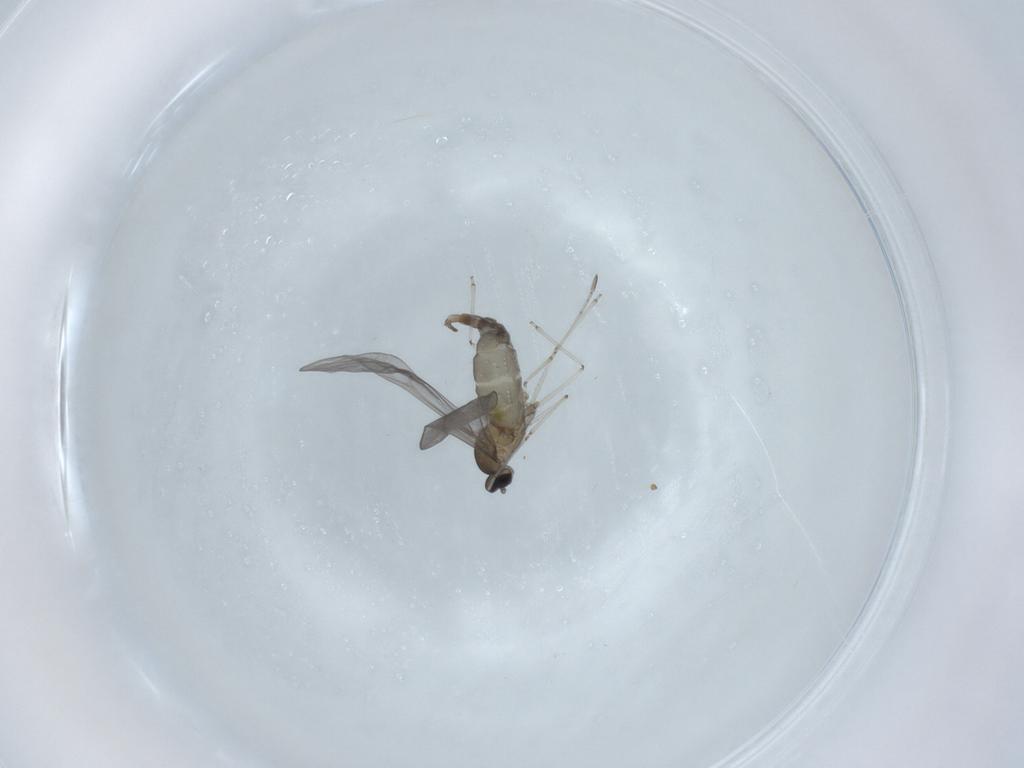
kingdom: Animalia
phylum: Arthropoda
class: Insecta
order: Diptera
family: Cecidomyiidae
